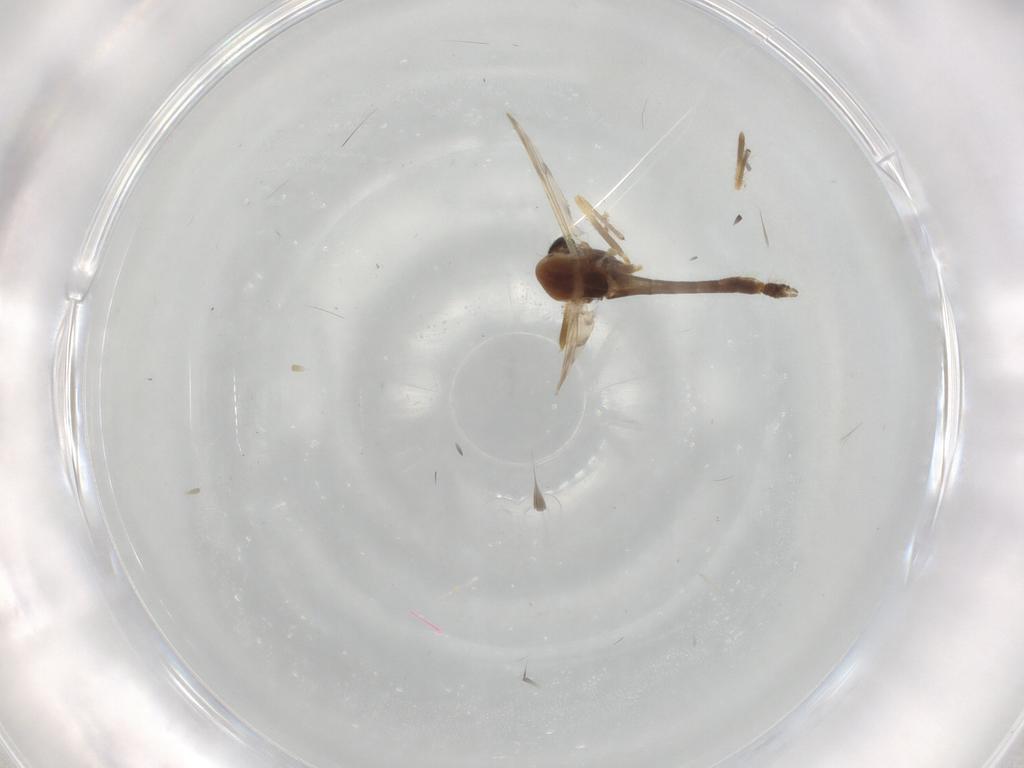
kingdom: Animalia
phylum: Arthropoda
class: Insecta
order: Diptera
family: Chironomidae
